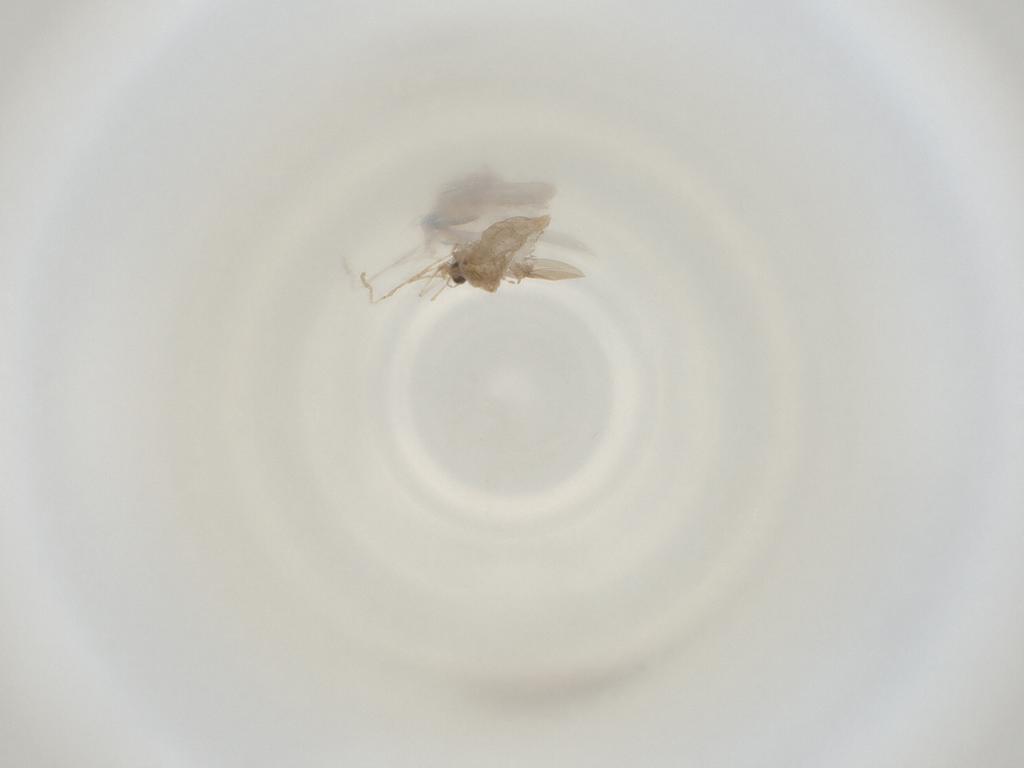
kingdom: Animalia
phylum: Arthropoda
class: Insecta
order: Diptera
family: Cecidomyiidae
